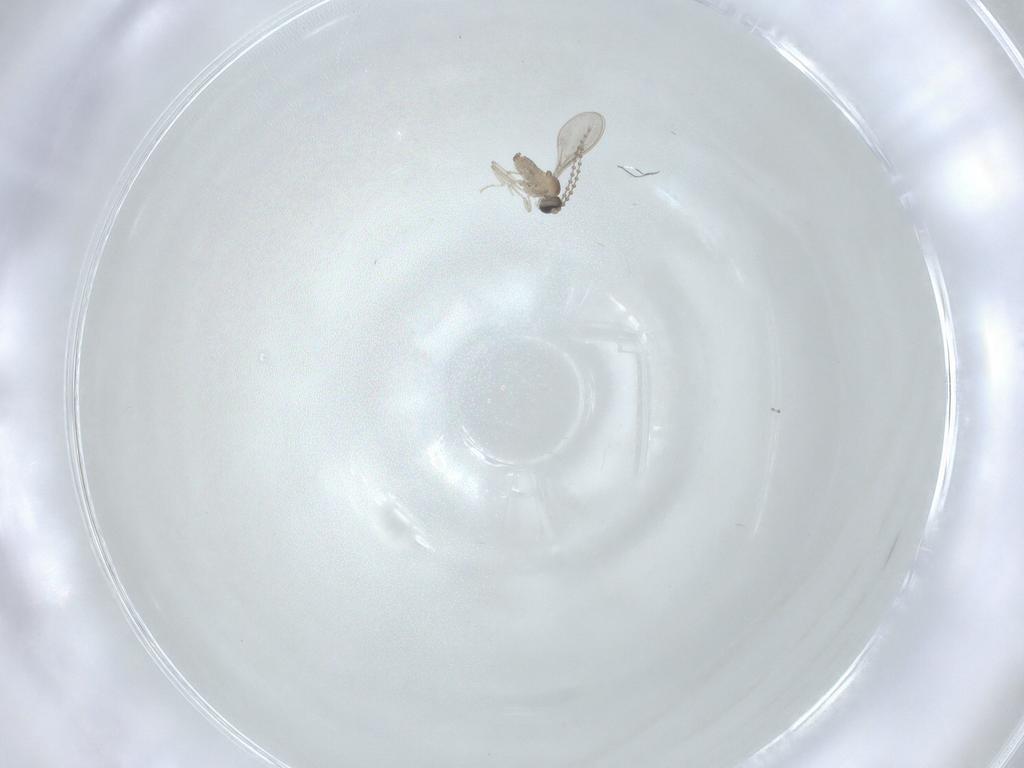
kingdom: Animalia
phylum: Arthropoda
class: Insecta
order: Diptera
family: Cecidomyiidae
